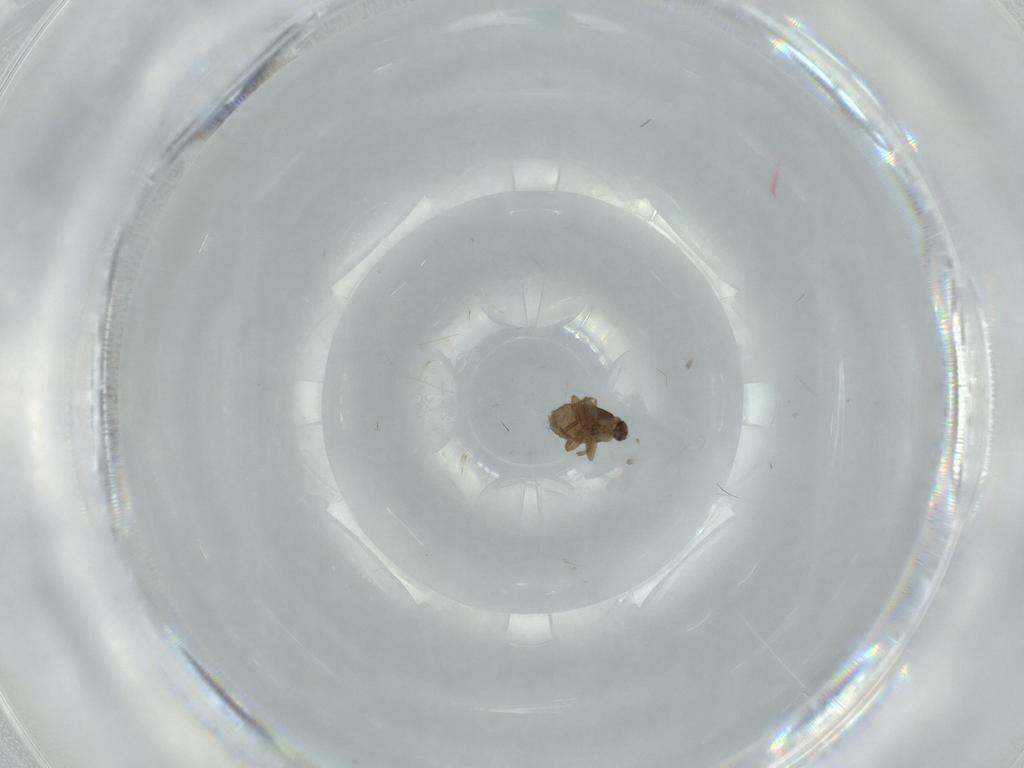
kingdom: Animalia
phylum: Arthropoda
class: Insecta
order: Diptera
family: Phoridae
